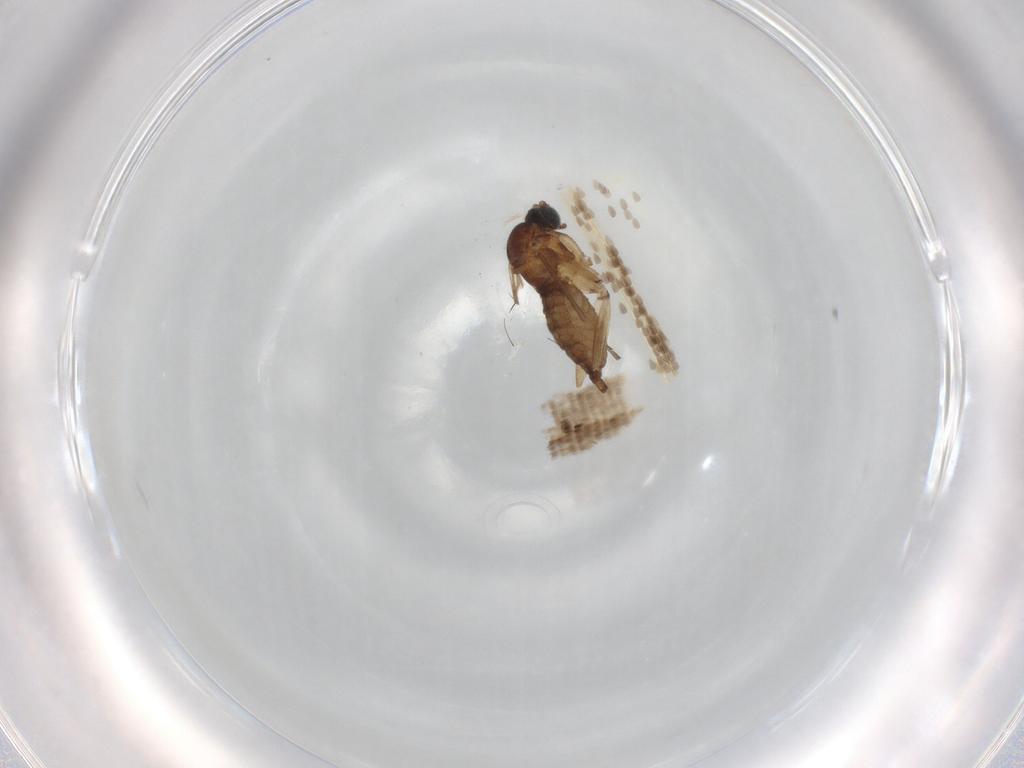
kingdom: Animalia
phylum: Arthropoda
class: Insecta
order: Diptera
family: Sciaridae
